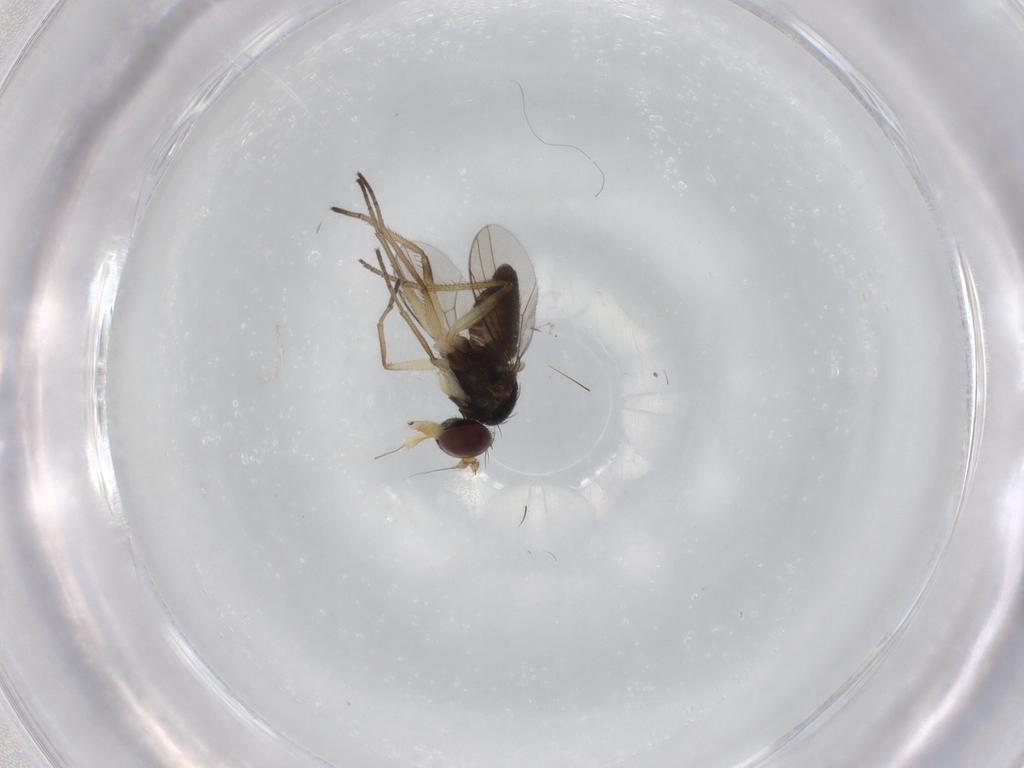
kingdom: Animalia
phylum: Arthropoda
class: Insecta
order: Diptera
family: Dolichopodidae
